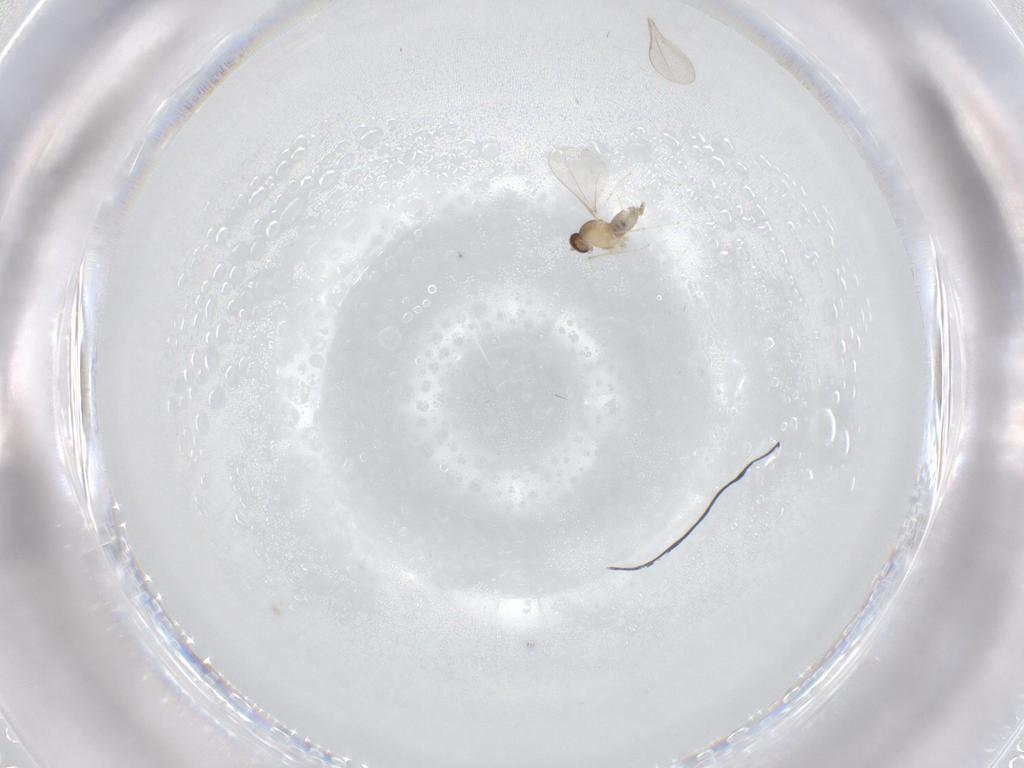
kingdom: Animalia
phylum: Arthropoda
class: Insecta
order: Diptera
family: Cecidomyiidae
